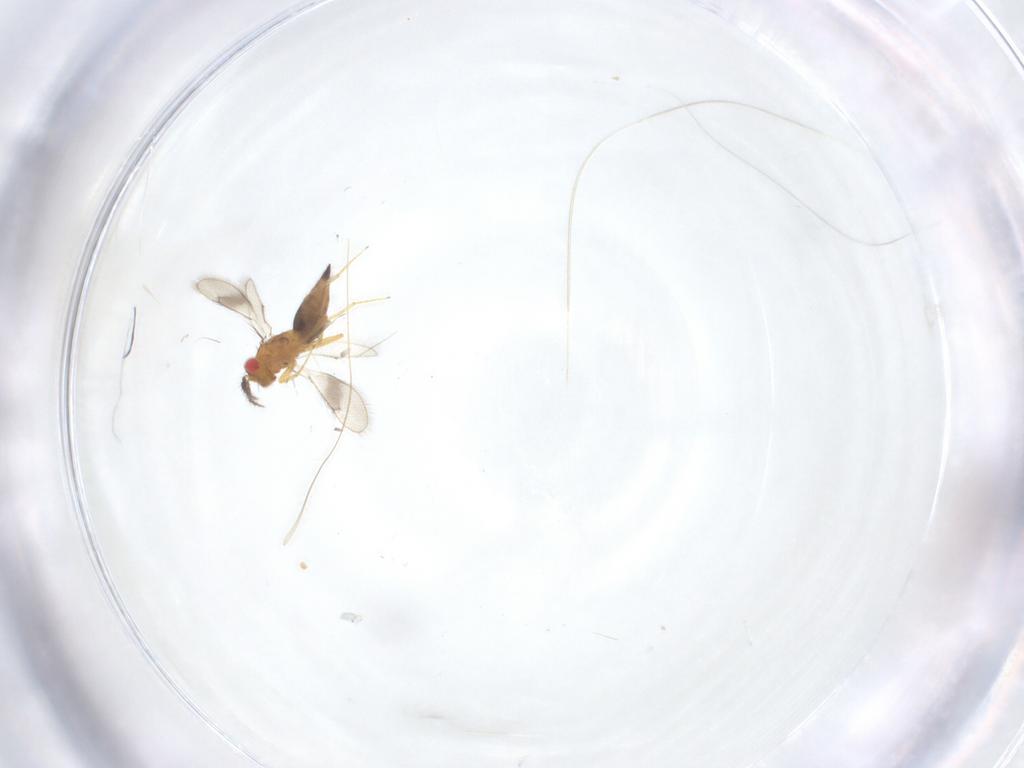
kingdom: Animalia
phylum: Arthropoda
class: Insecta
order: Hymenoptera
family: Eulophidae
